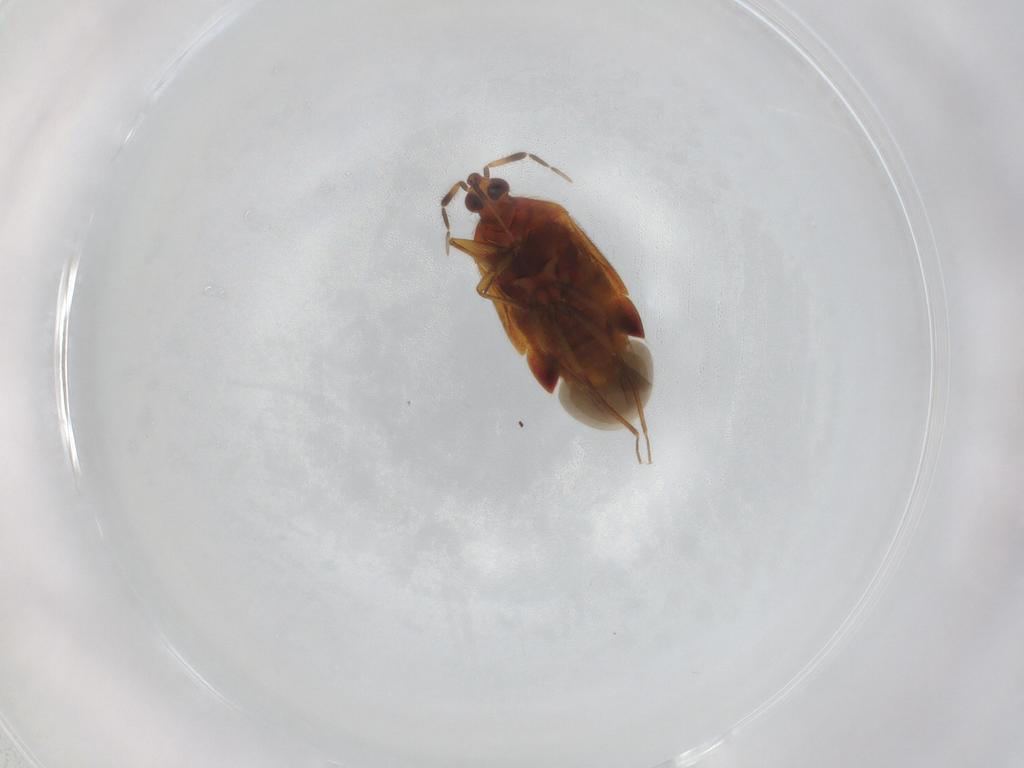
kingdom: Animalia
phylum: Arthropoda
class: Insecta
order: Hemiptera
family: Anthocoridae
